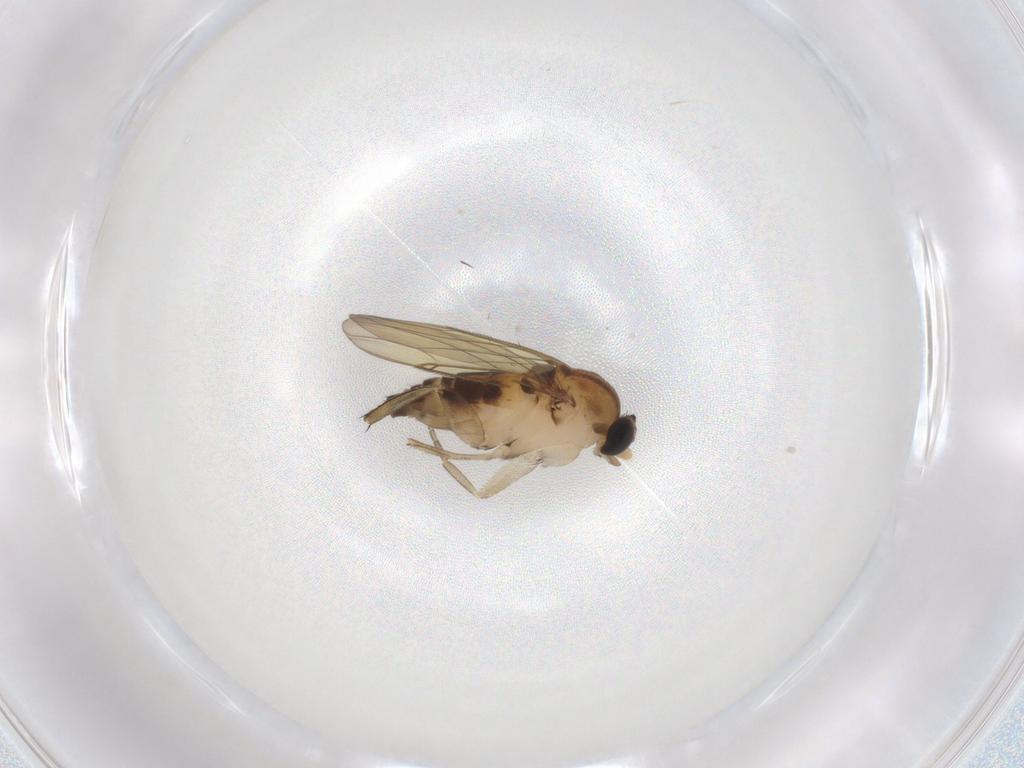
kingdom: Animalia
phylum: Arthropoda
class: Insecta
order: Diptera
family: Phoridae
